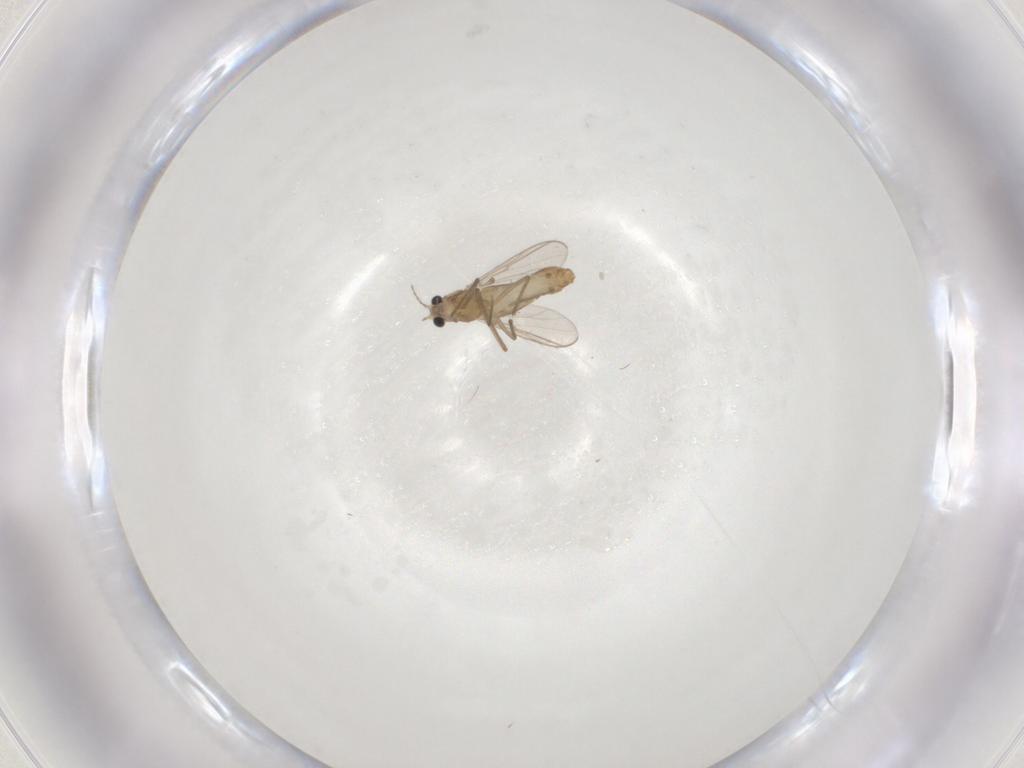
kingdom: Animalia
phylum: Arthropoda
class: Insecta
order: Diptera
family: Chironomidae
